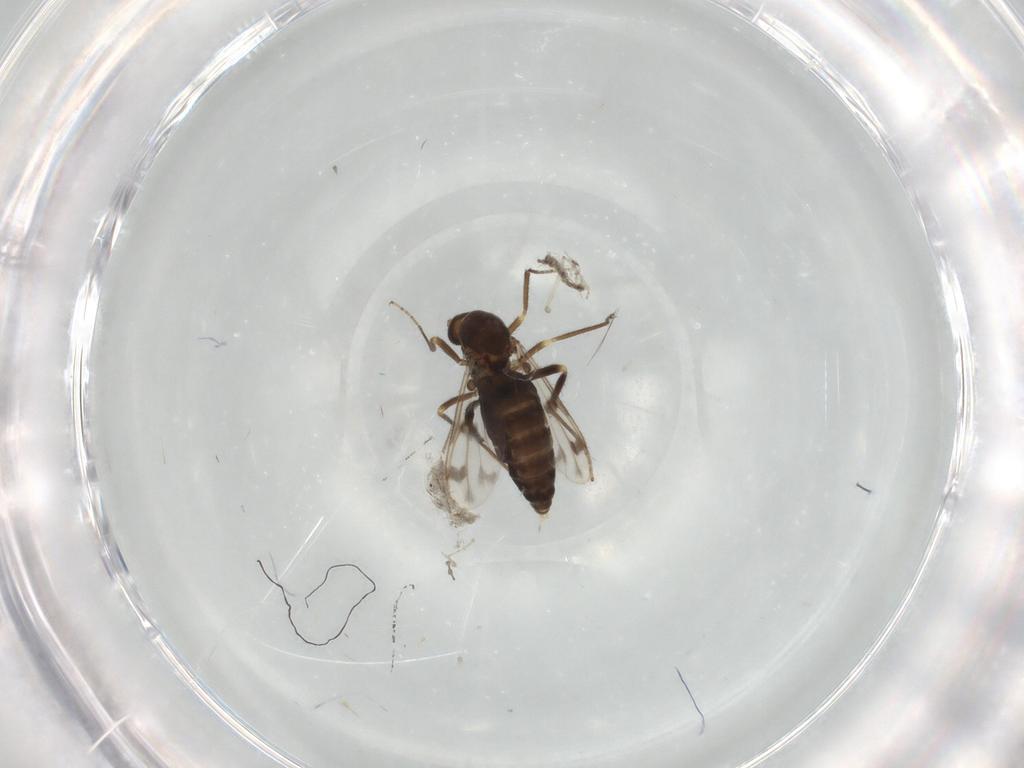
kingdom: Animalia
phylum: Arthropoda
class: Insecta
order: Diptera
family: Ceratopogonidae
